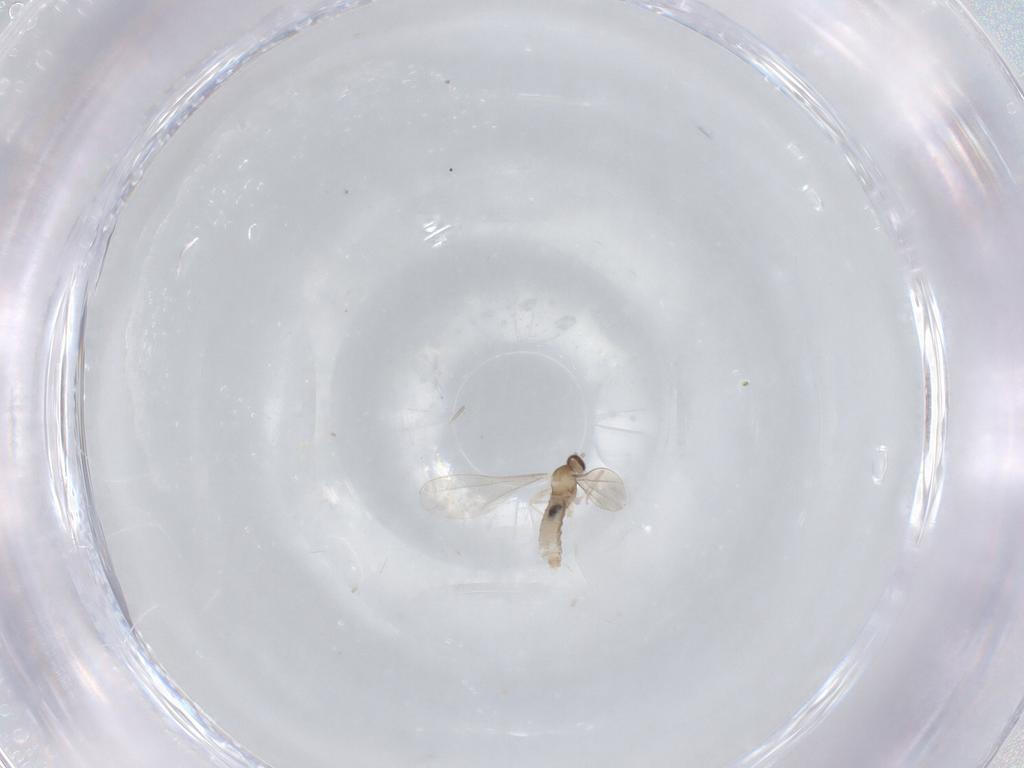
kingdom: Animalia
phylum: Arthropoda
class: Insecta
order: Diptera
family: Cecidomyiidae
